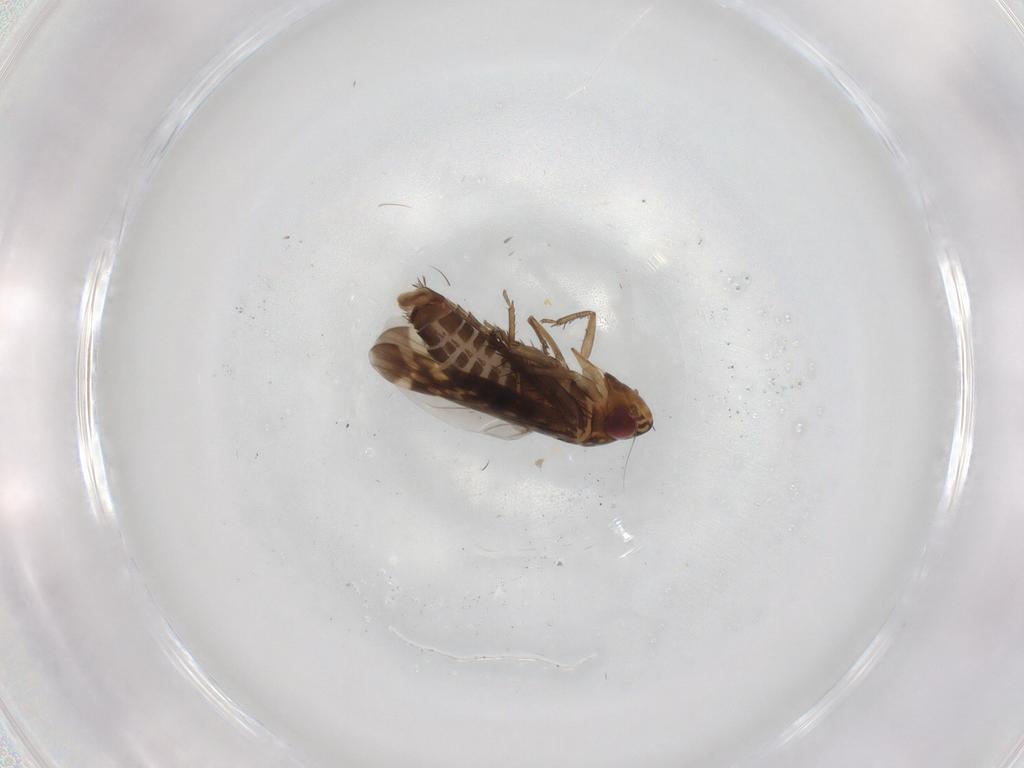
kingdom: Animalia
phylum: Arthropoda
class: Insecta
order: Hemiptera
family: Cicadellidae
